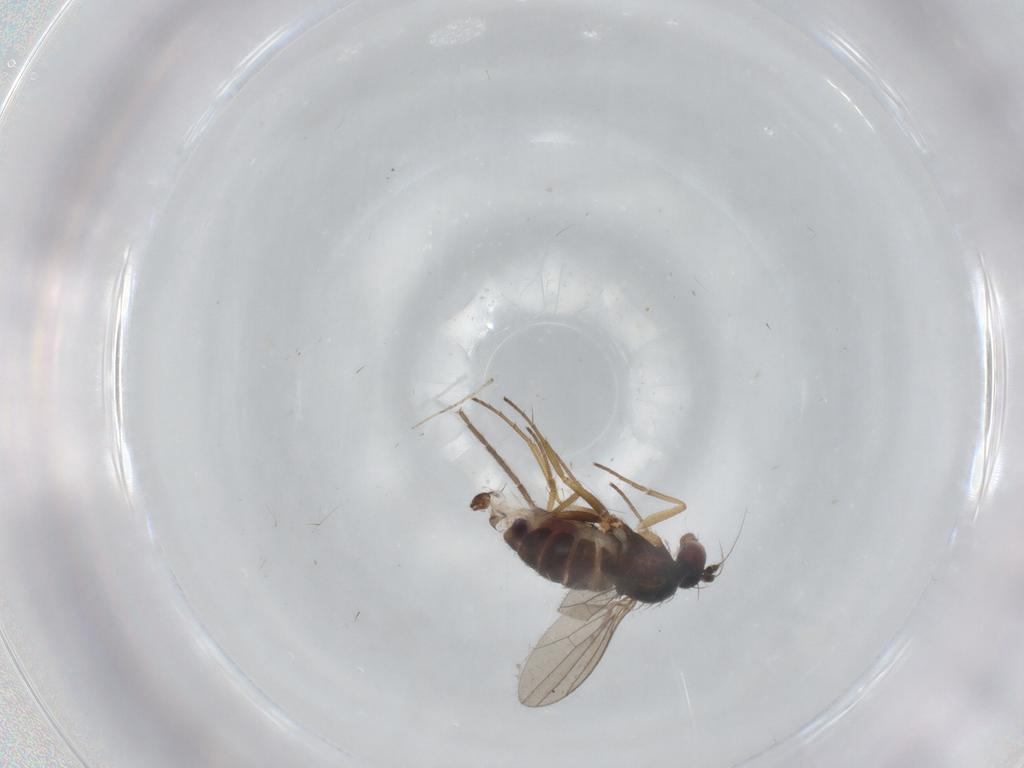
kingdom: Animalia
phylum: Arthropoda
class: Insecta
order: Diptera
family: Dolichopodidae
